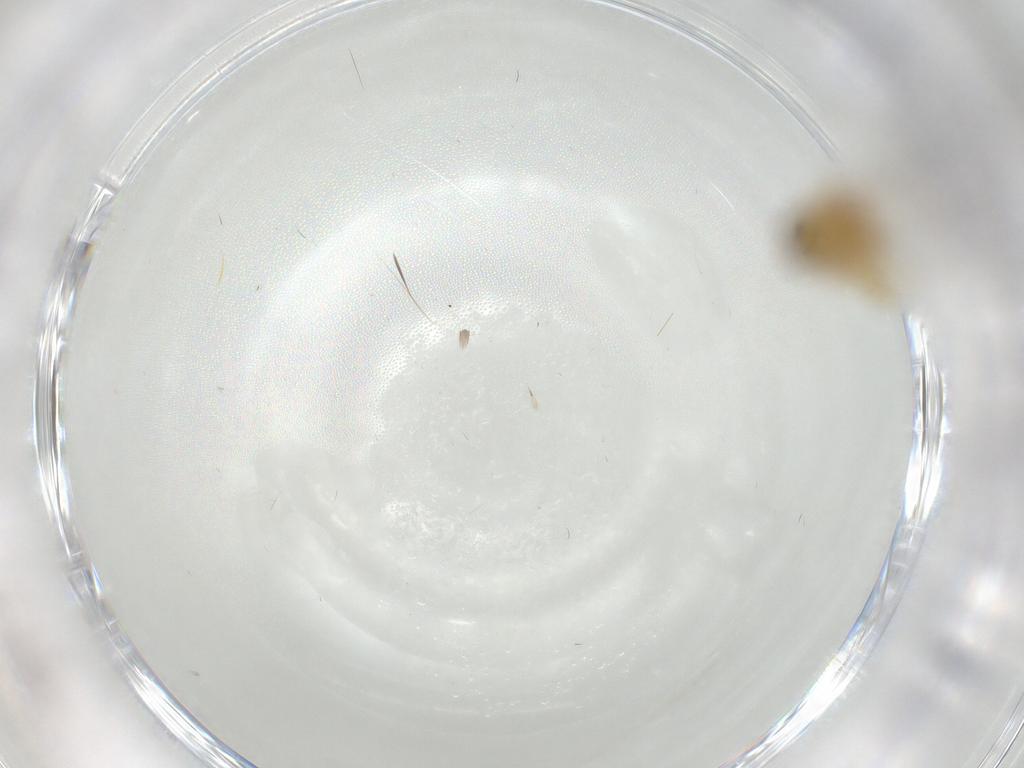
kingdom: Animalia
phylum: Arthropoda
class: Insecta
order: Diptera
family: Chironomidae
